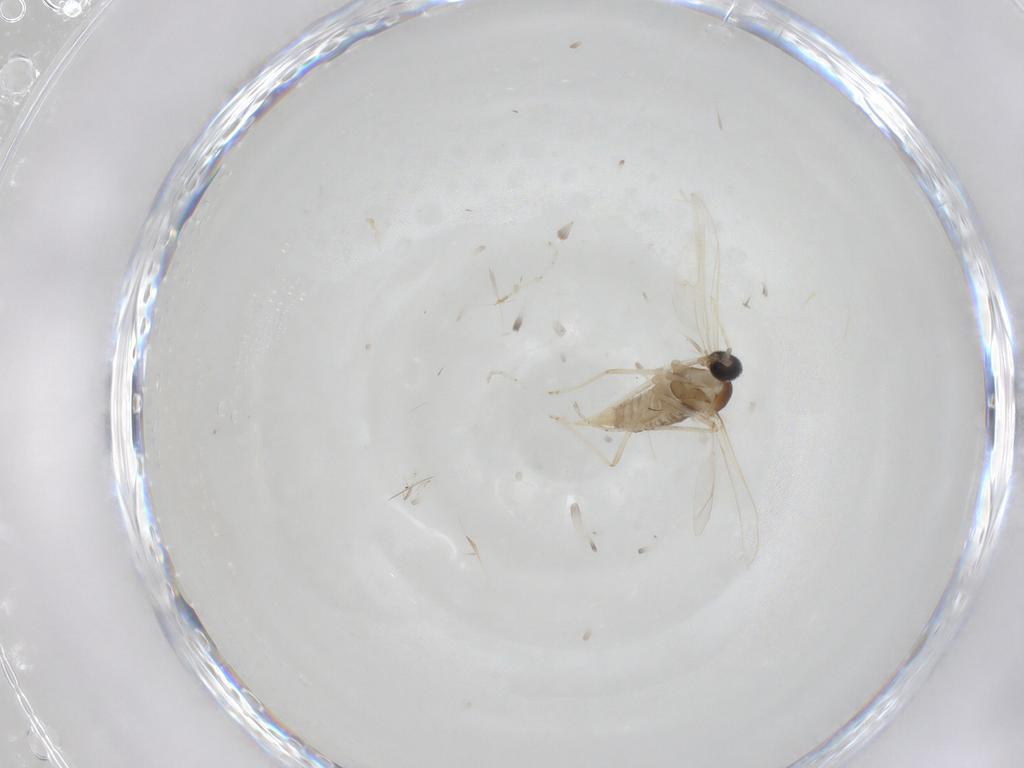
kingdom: Animalia
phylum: Arthropoda
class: Insecta
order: Diptera
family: Cecidomyiidae
